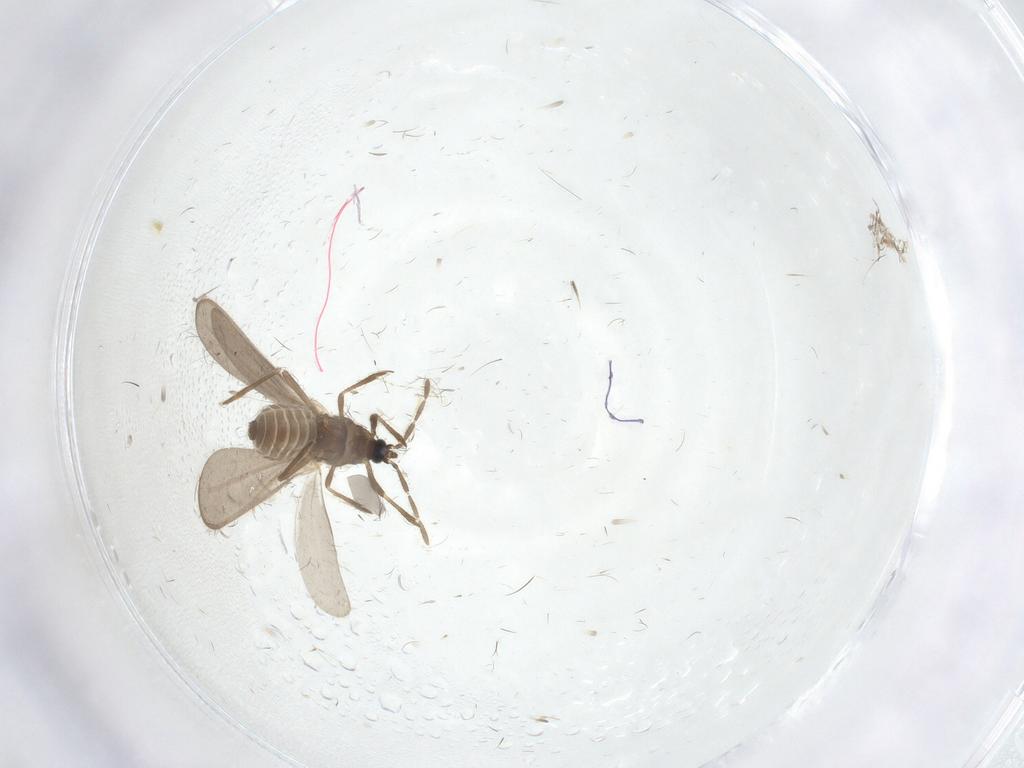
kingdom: Animalia
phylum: Arthropoda
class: Insecta
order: Hemiptera
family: Enicocephalidae
